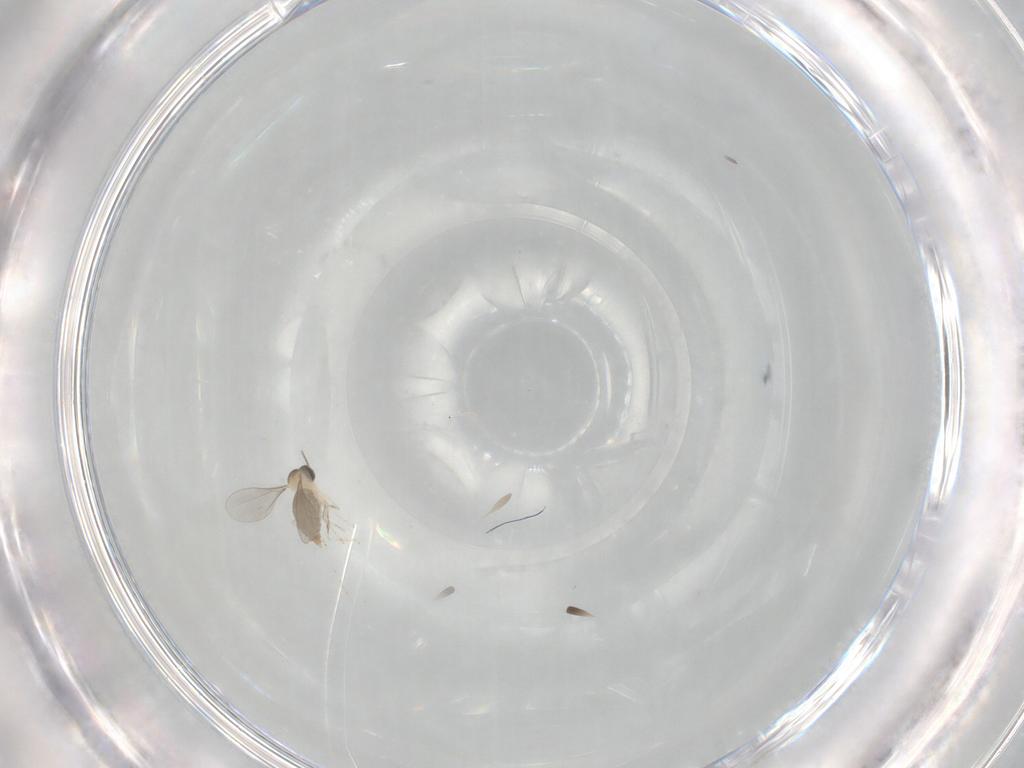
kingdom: Animalia
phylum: Arthropoda
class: Insecta
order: Diptera
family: Cecidomyiidae
